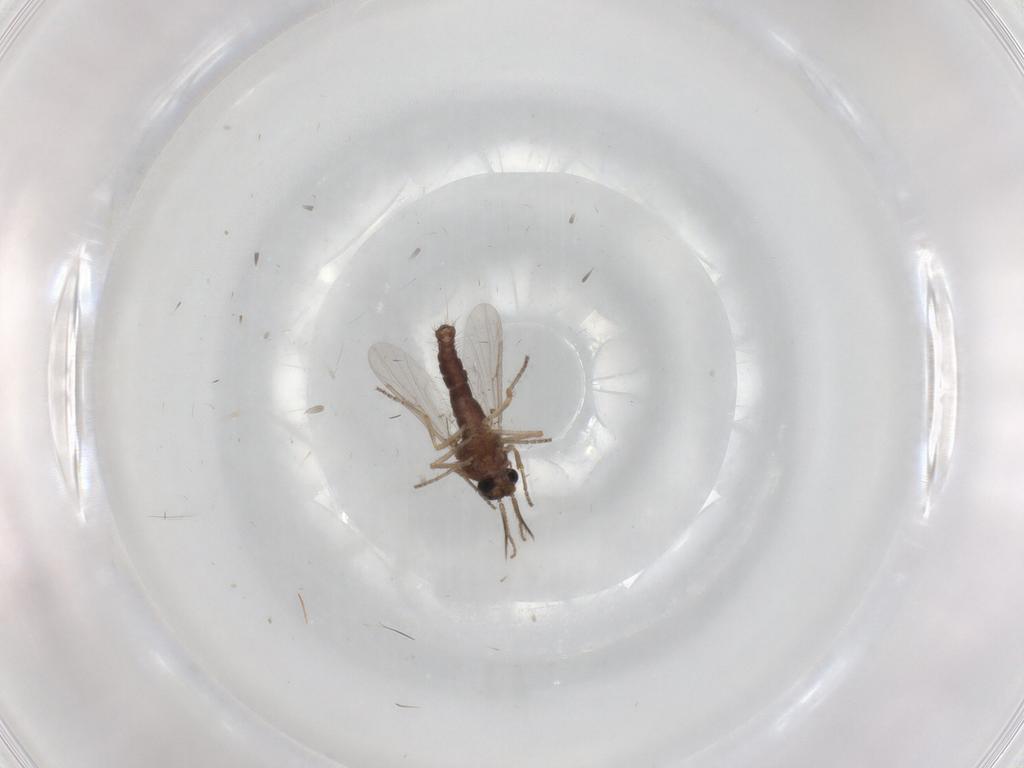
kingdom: Animalia
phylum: Arthropoda
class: Insecta
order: Diptera
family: Ceratopogonidae
